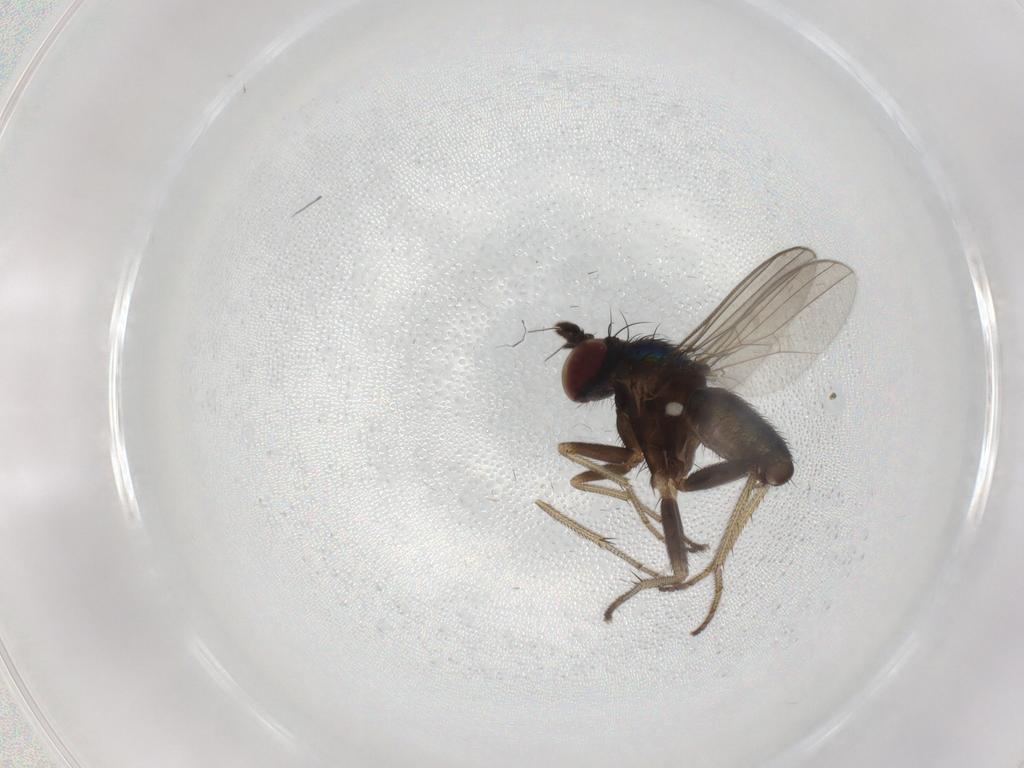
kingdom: Animalia
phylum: Arthropoda
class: Insecta
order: Diptera
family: Dolichopodidae
